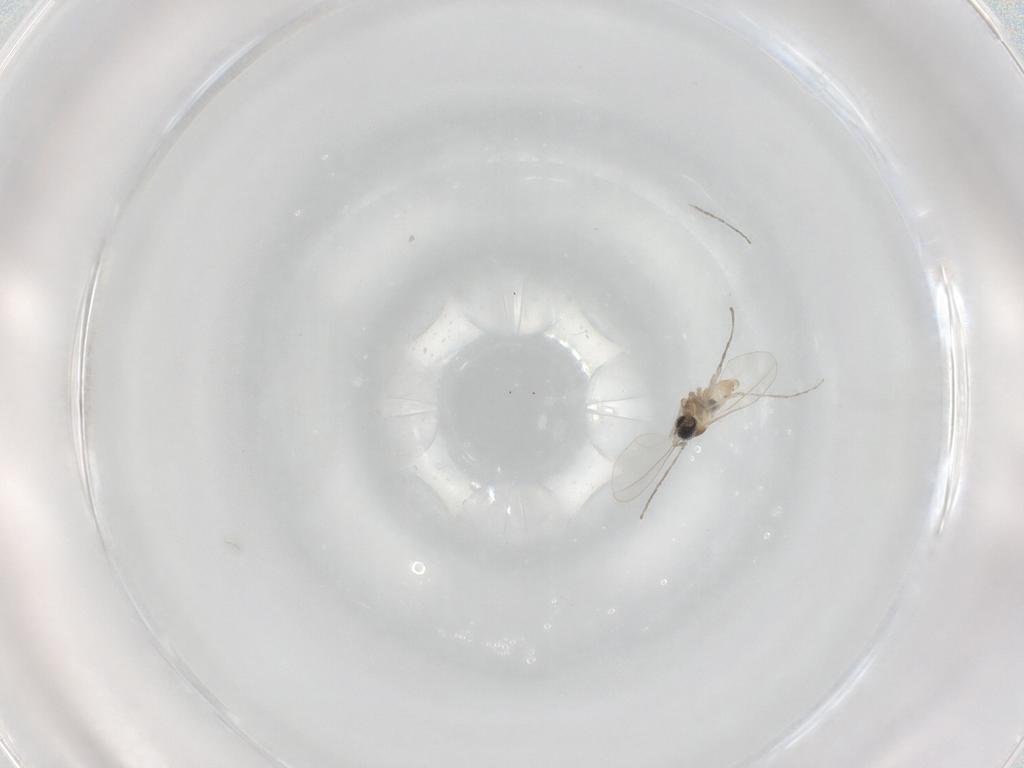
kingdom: Animalia
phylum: Arthropoda
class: Insecta
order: Diptera
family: Cecidomyiidae
